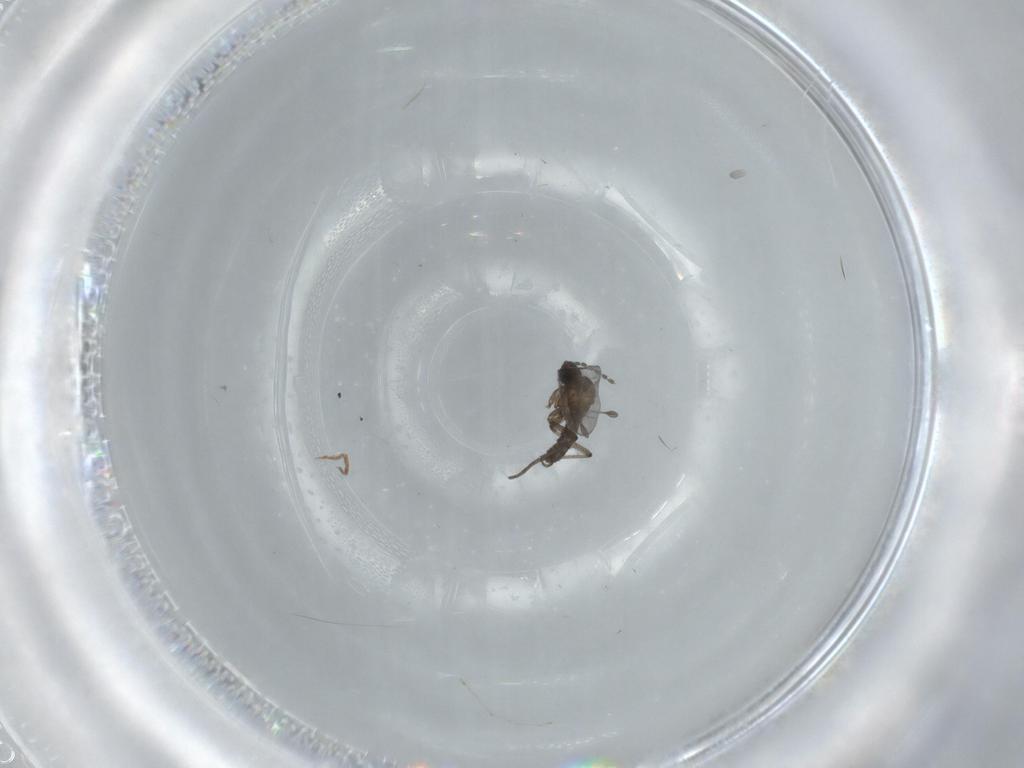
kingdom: Animalia
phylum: Arthropoda
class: Insecta
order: Diptera
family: Sciaridae
